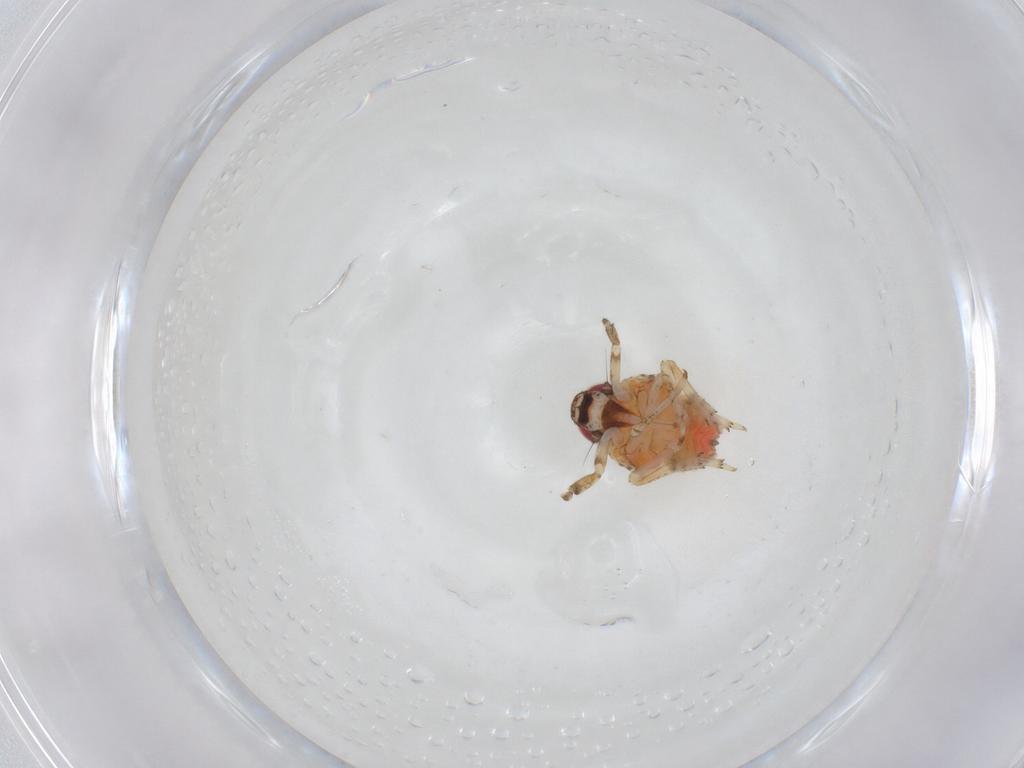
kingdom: Animalia
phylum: Arthropoda
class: Insecta
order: Hemiptera
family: Issidae
